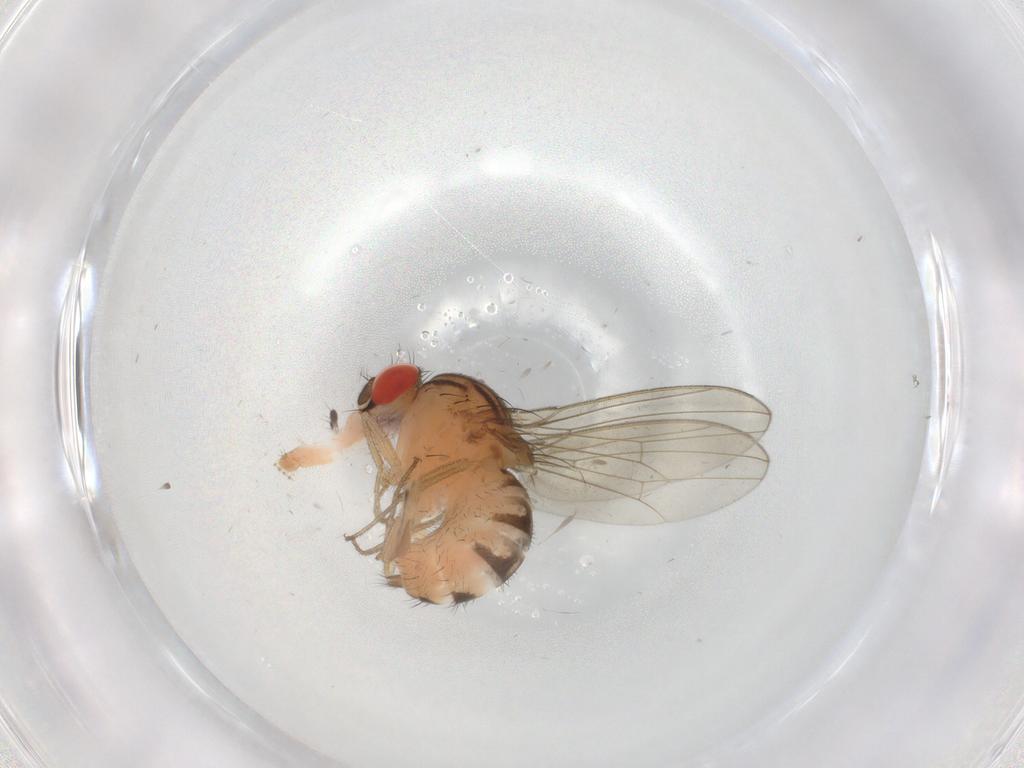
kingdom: Animalia
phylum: Arthropoda
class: Insecta
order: Diptera
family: Drosophilidae
